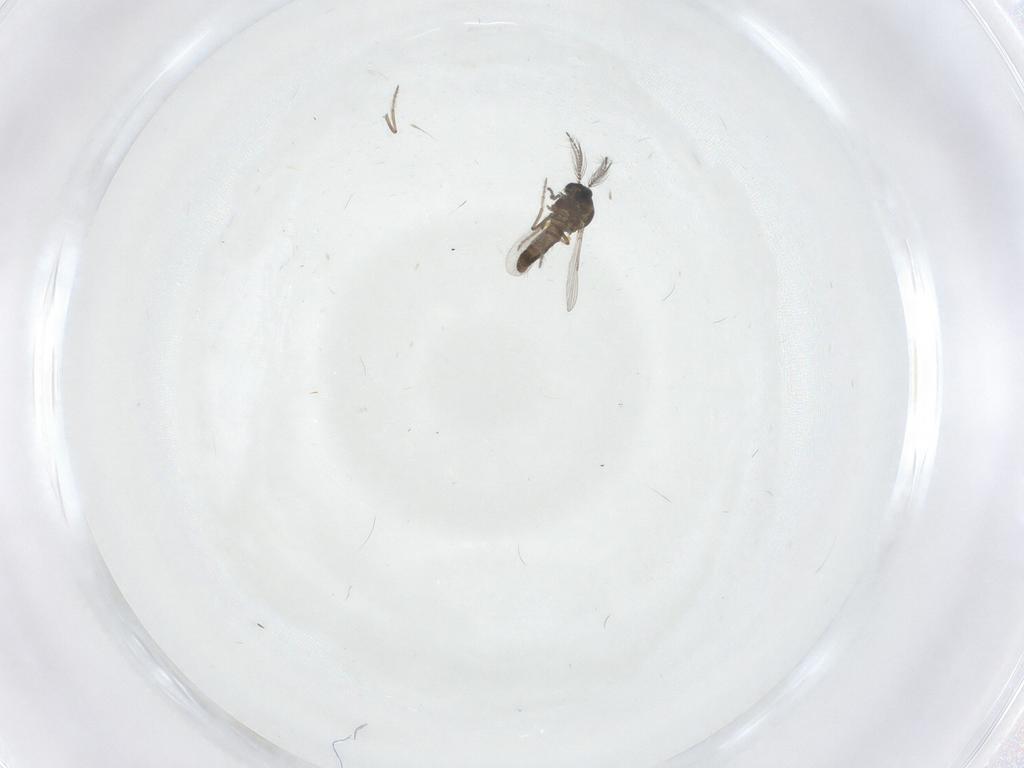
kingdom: Animalia
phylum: Arthropoda
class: Insecta
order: Diptera
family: Ceratopogonidae
